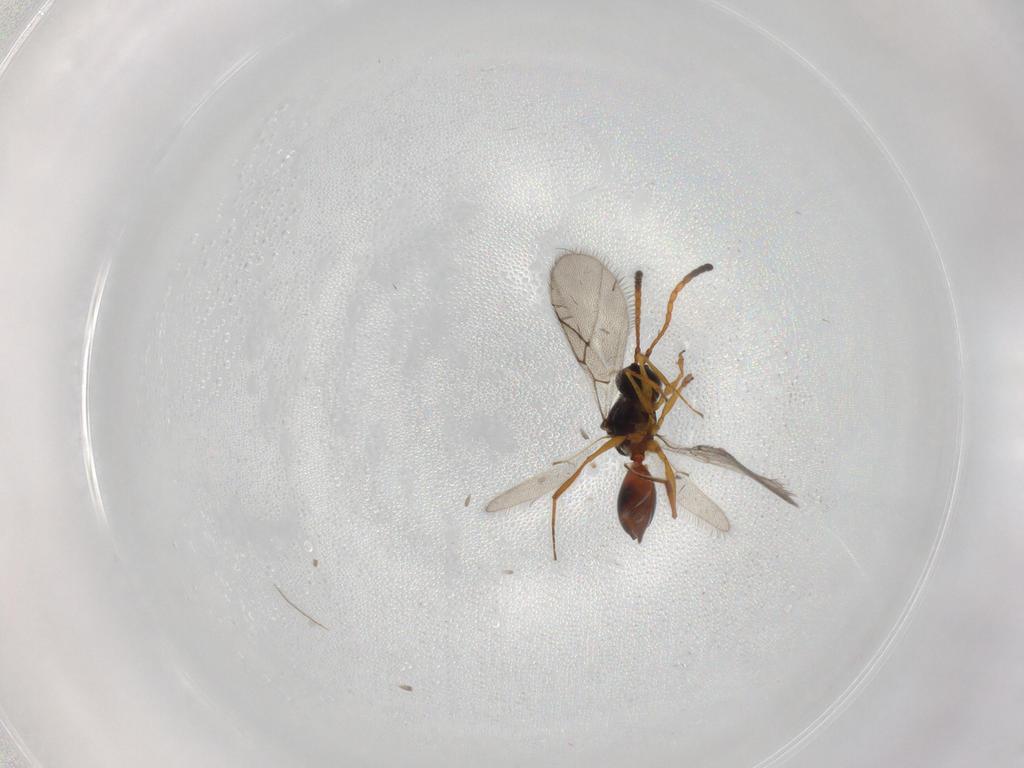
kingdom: Animalia
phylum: Arthropoda
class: Insecta
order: Hymenoptera
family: Figitidae
